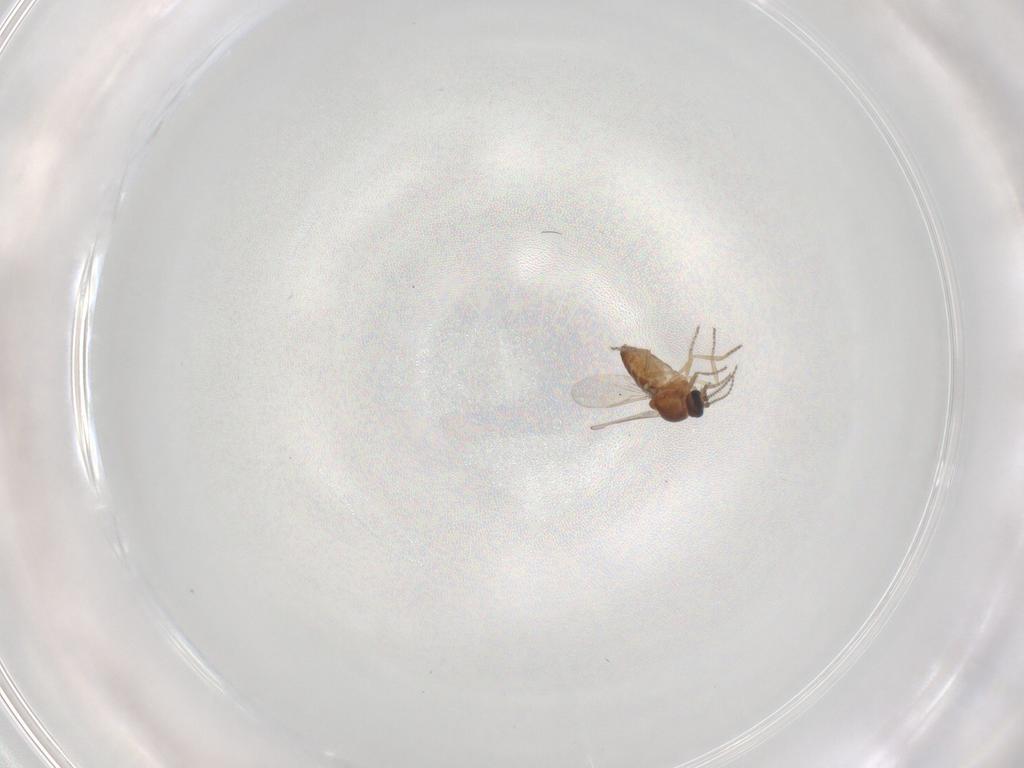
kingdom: Animalia
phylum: Arthropoda
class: Insecta
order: Diptera
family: Ceratopogonidae
